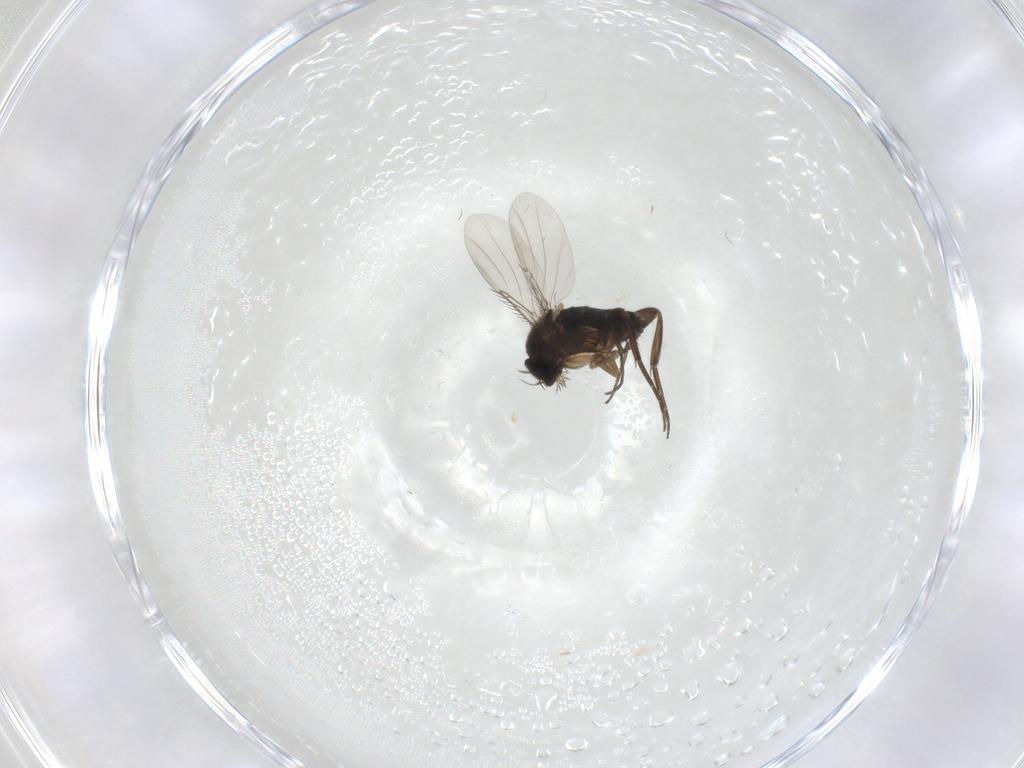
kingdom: Animalia
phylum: Arthropoda
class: Insecta
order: Diptera
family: Phoridae
